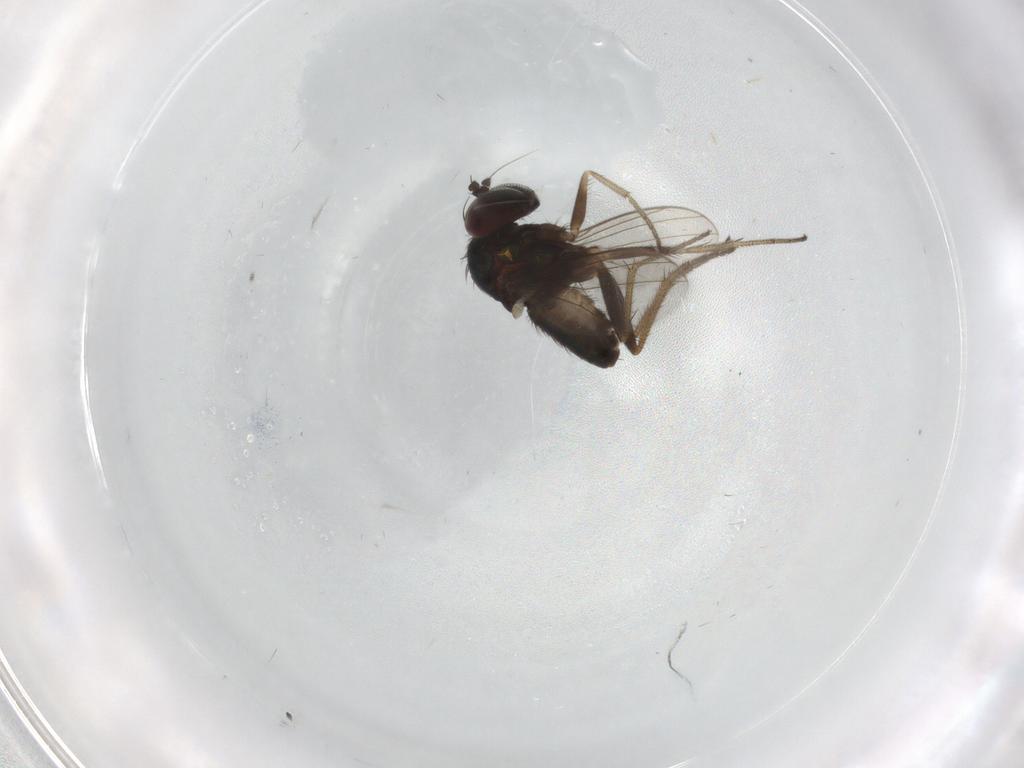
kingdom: Animalia
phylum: Arthropoda
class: Insecta
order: Diptera
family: Dolichopodidae
